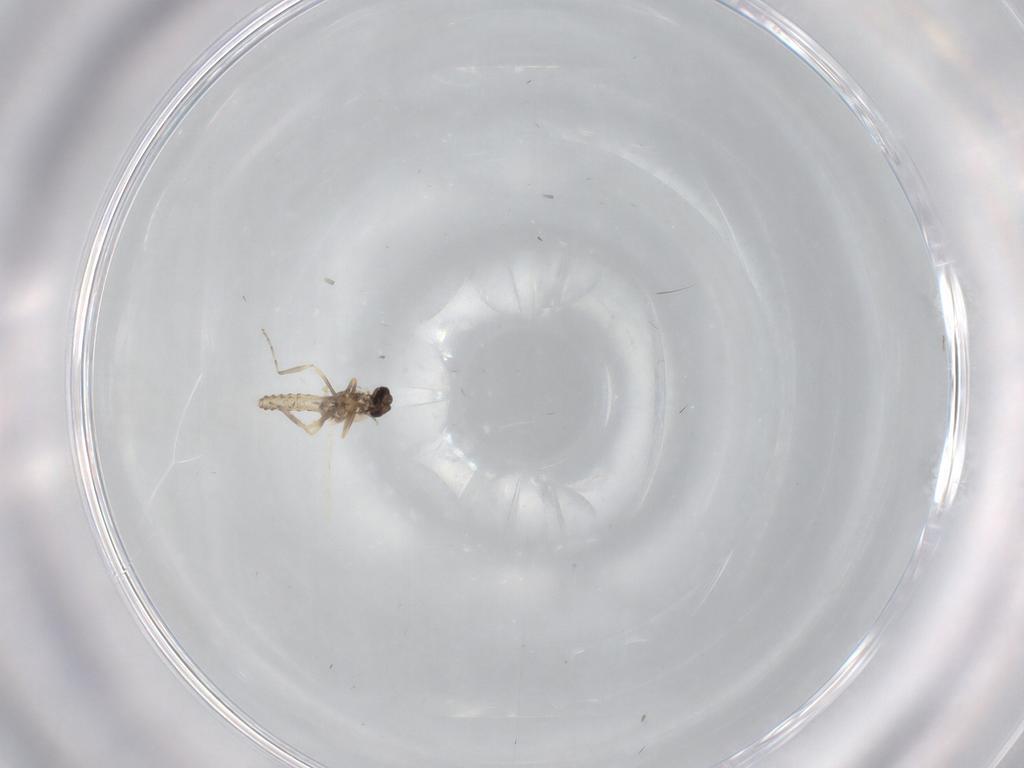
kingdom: Animalia
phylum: Arthropoda
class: Insecta
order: Diptera
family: Ceratopogonidae
